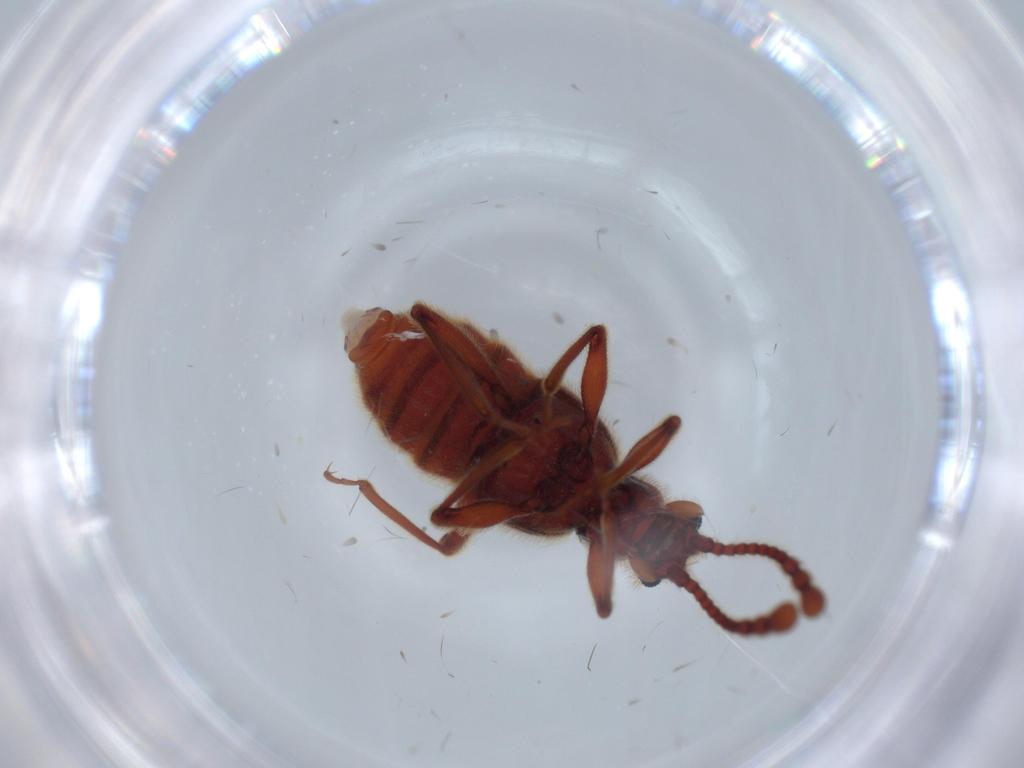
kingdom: Animalia
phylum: Arthropoda
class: Insecta
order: Coleoptera
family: Staphylinidae
